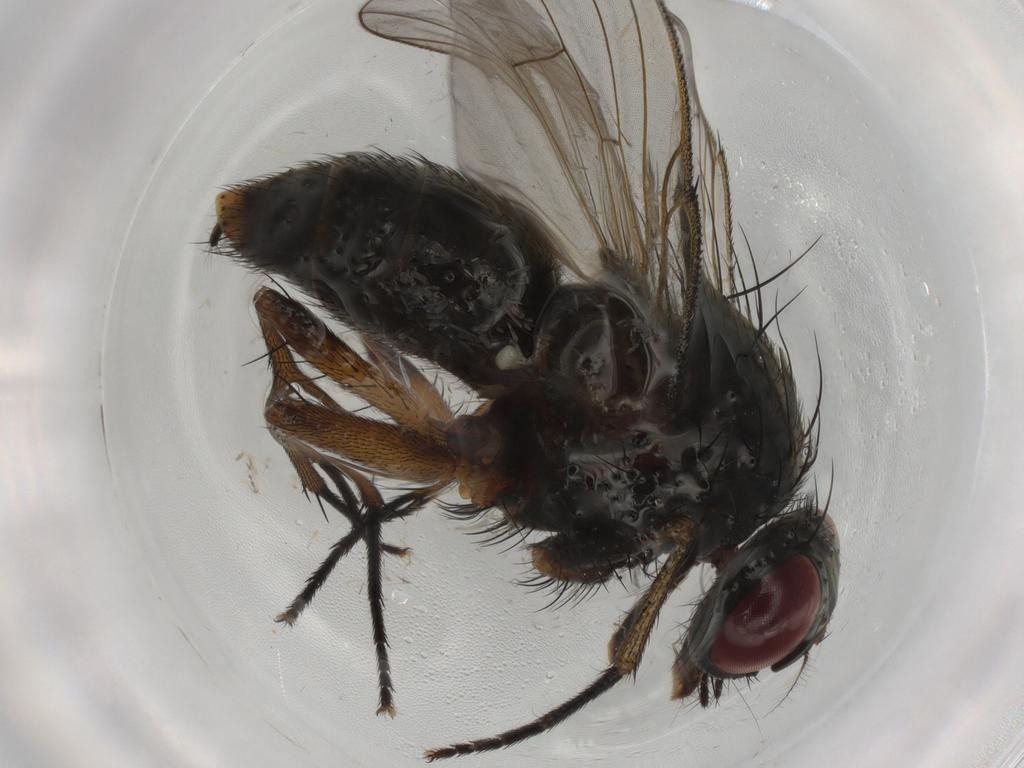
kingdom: Animalia
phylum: Arthropoda
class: Insecta
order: Diptera
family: Muscidae
